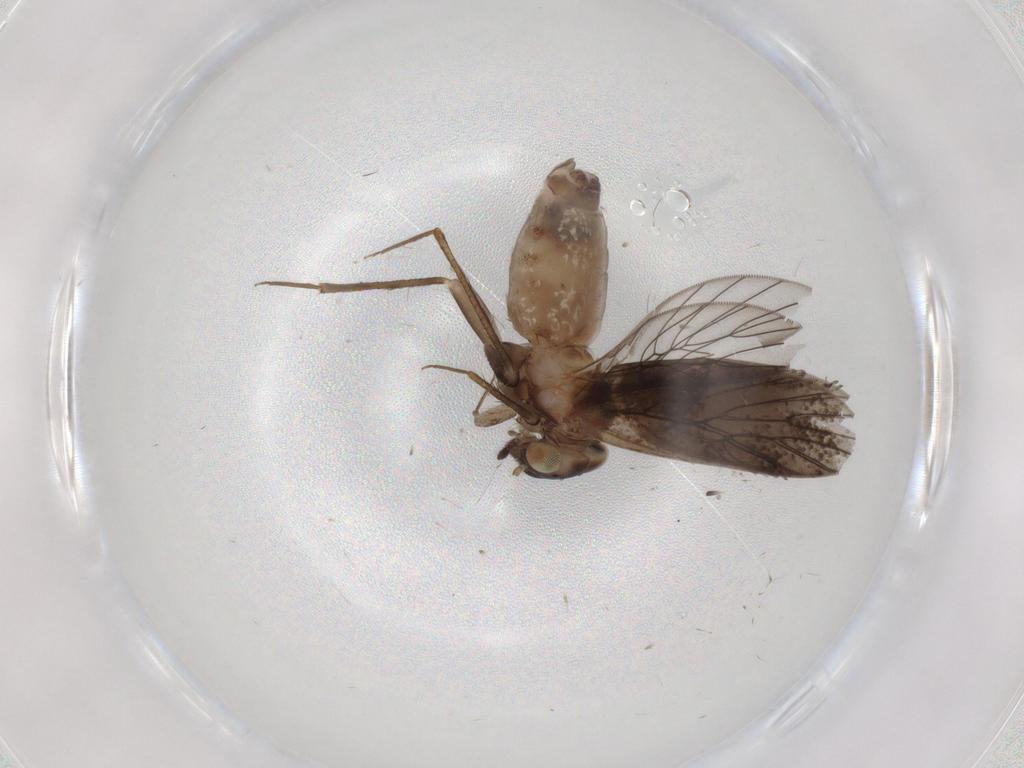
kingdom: Animalia
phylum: Arthropoda
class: Insecta
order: Psocodea
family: Lepidopsocidae
